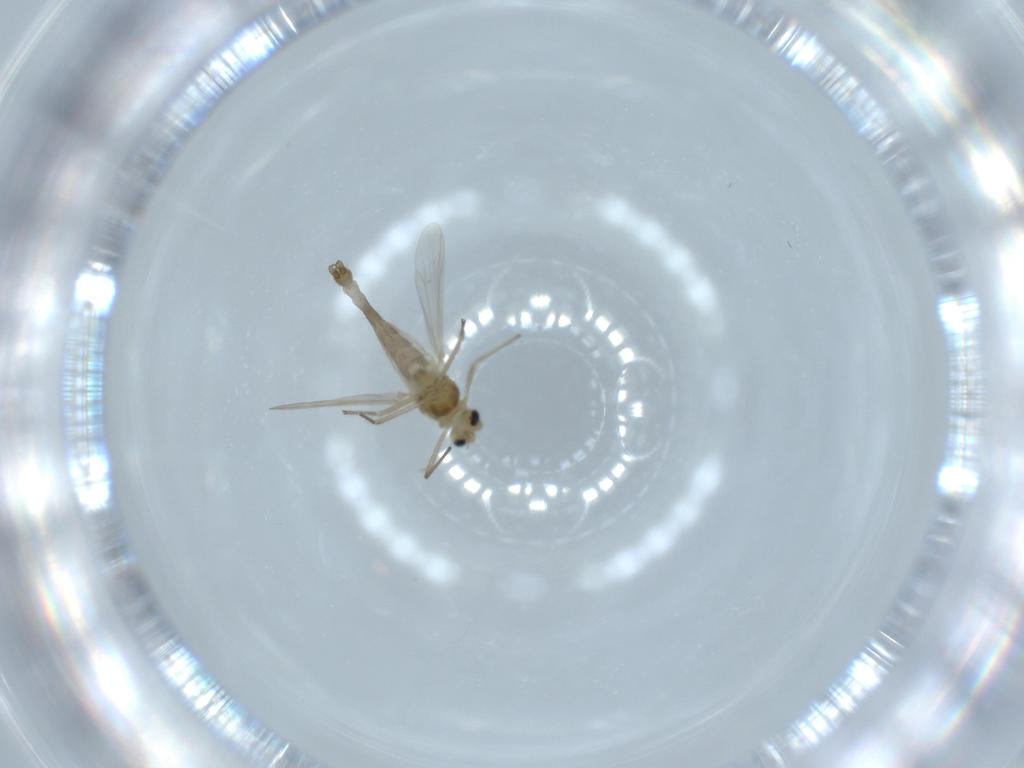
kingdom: Animalia
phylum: Arthropoda
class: Insecta
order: Diptera
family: Chironomidae
